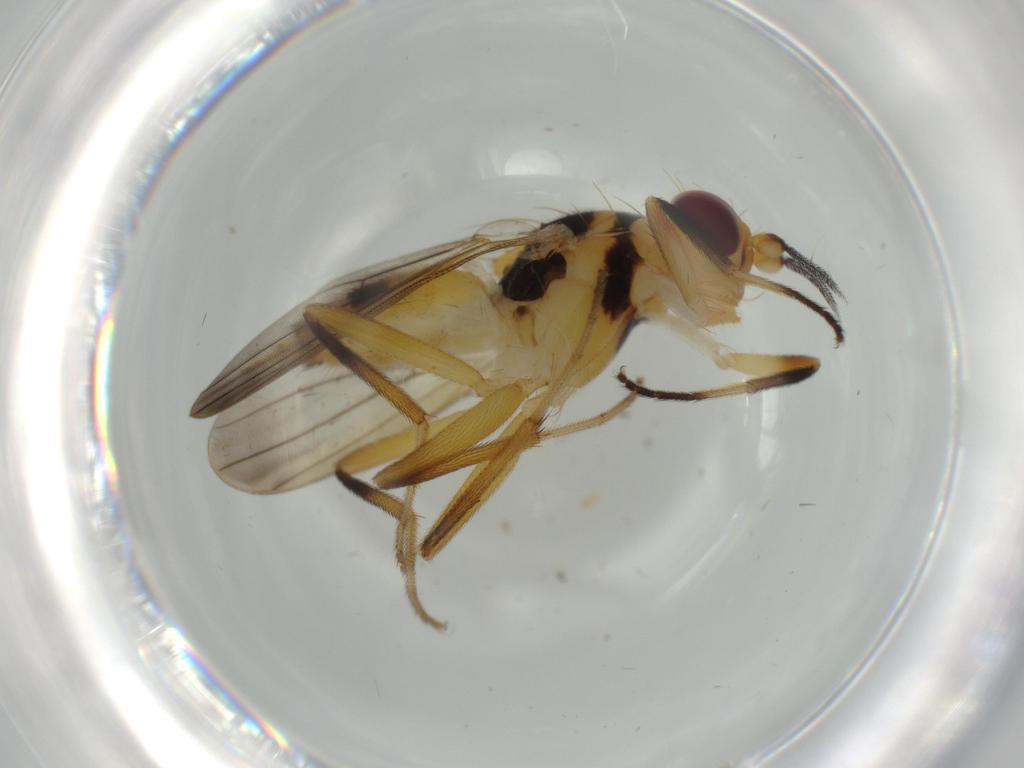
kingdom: Animalia
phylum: Arthropoda
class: Insecta
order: Diptera
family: Clusiidae
